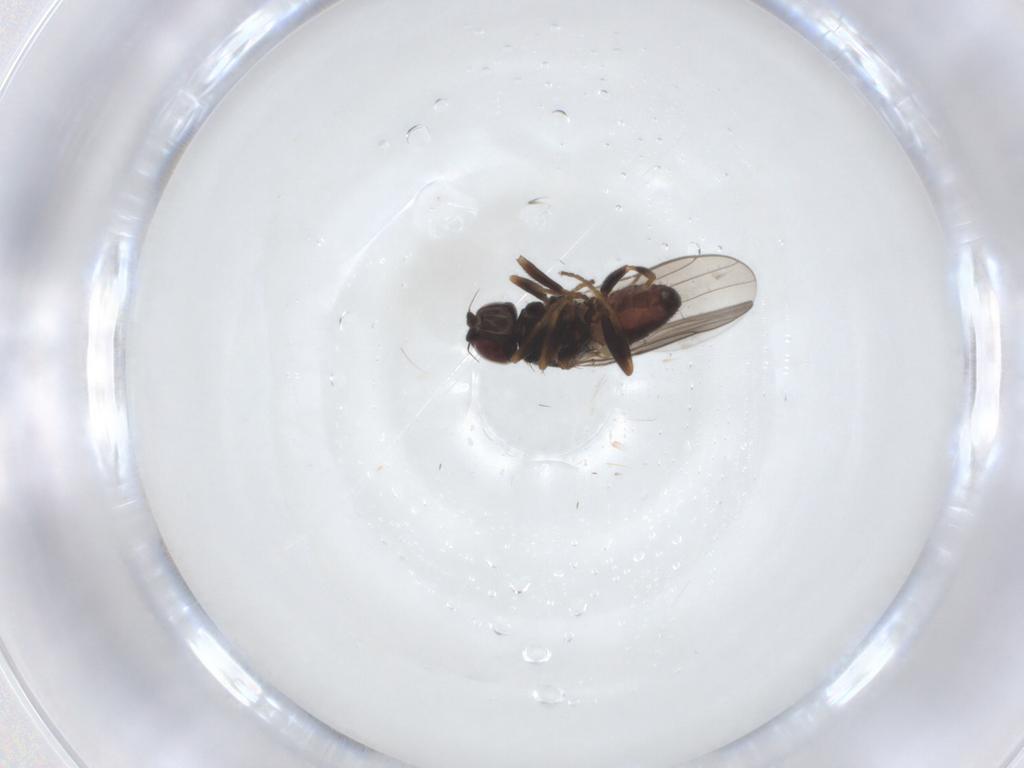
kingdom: Animalia
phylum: Arthropoda
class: Insecta
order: Diptera
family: Chloropidae
